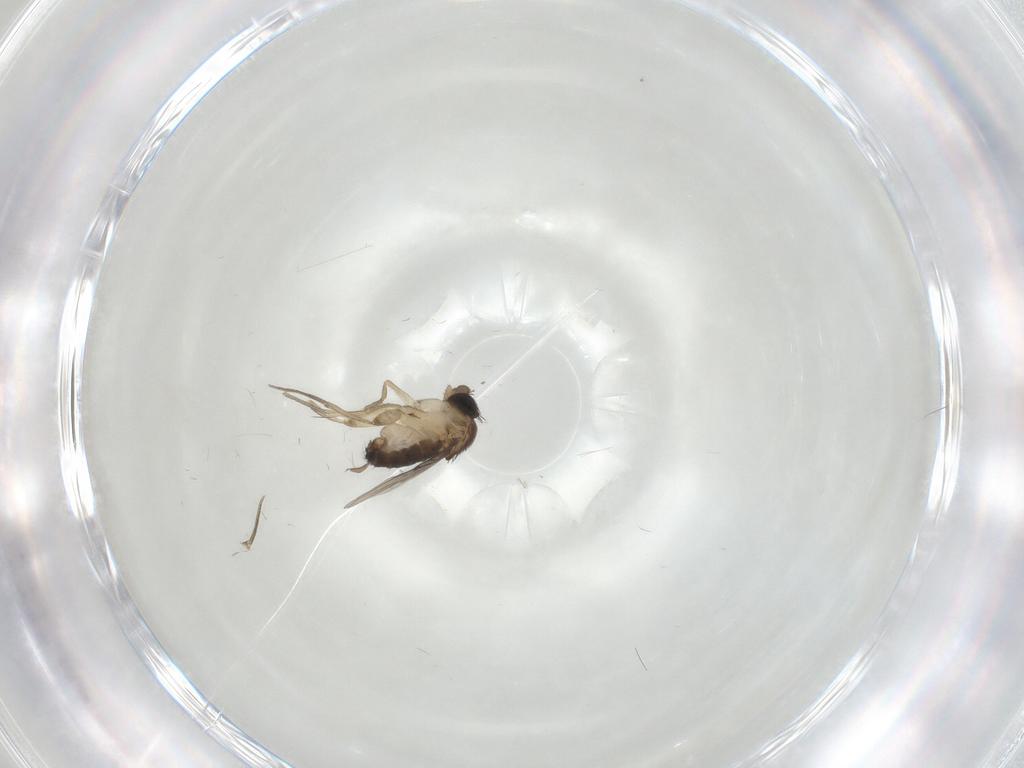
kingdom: Animalia
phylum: Arthropoda
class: Insecta
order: Diptera
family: Cecidomyiidae
